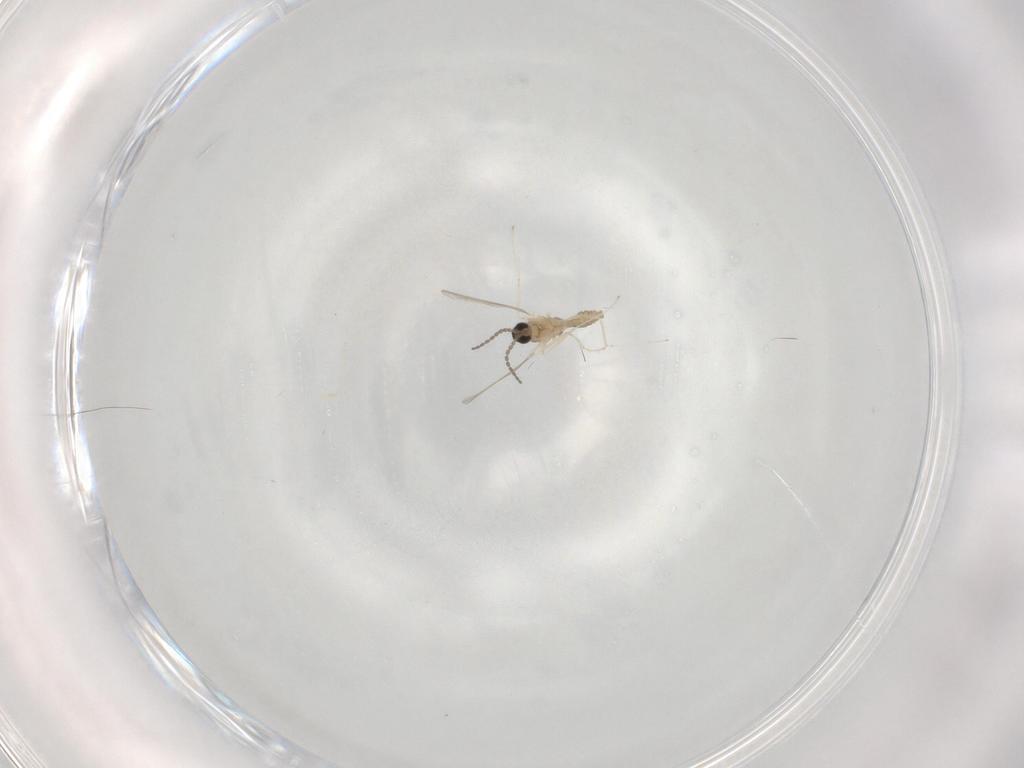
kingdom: Animalia
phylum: Arthropoda
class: Insecta
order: Diptera
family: Cecidomyiidae
